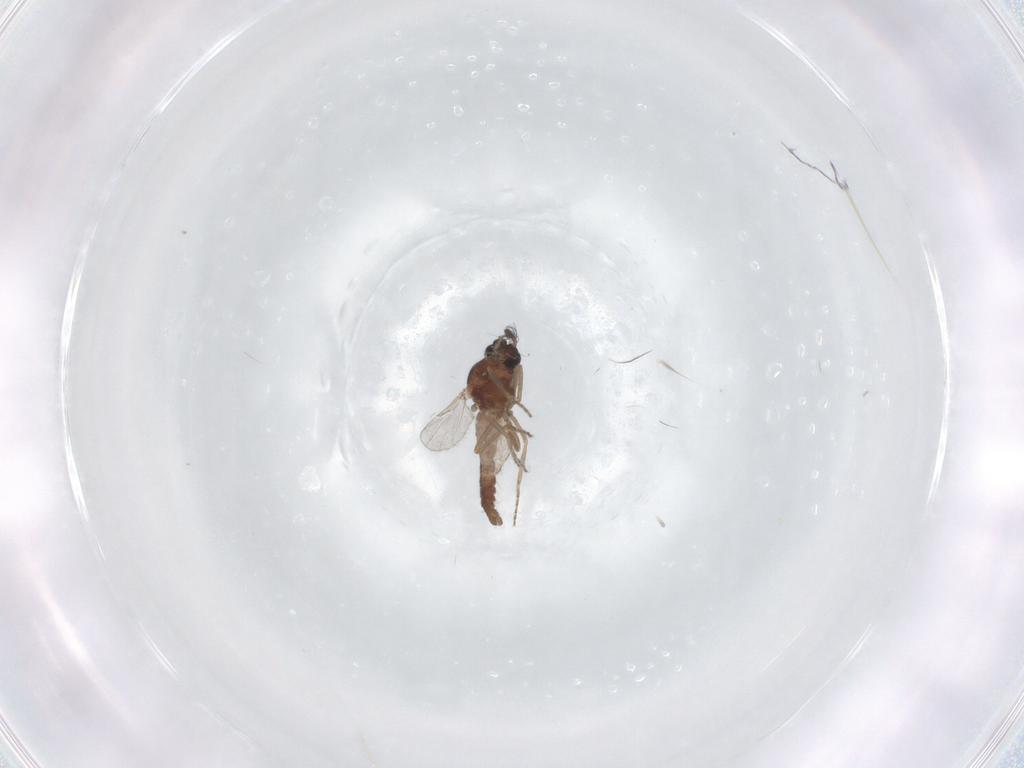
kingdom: Animalia
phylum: Arthropoda
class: Insecta
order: Diptera
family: Ceratopogonidae
